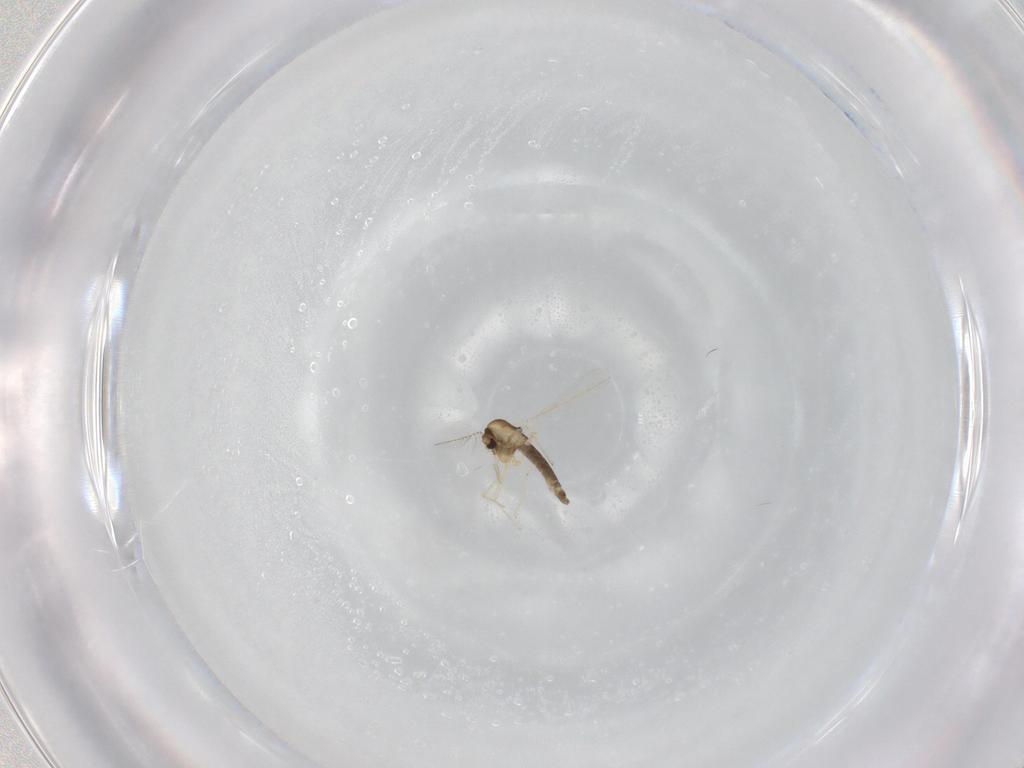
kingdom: Animalia
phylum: Arthropoda
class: Insecta
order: Diptera
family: Chironomidae
